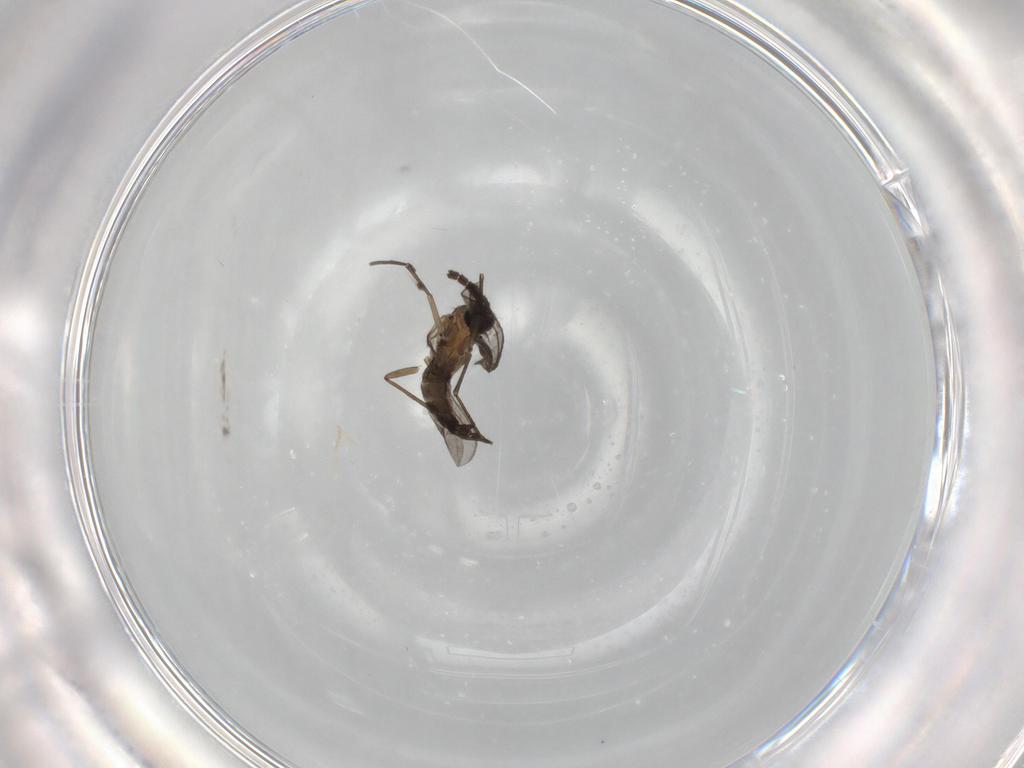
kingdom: Animalia
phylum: Arthropoda
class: Insecta
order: Diptera
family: Sciaridae
